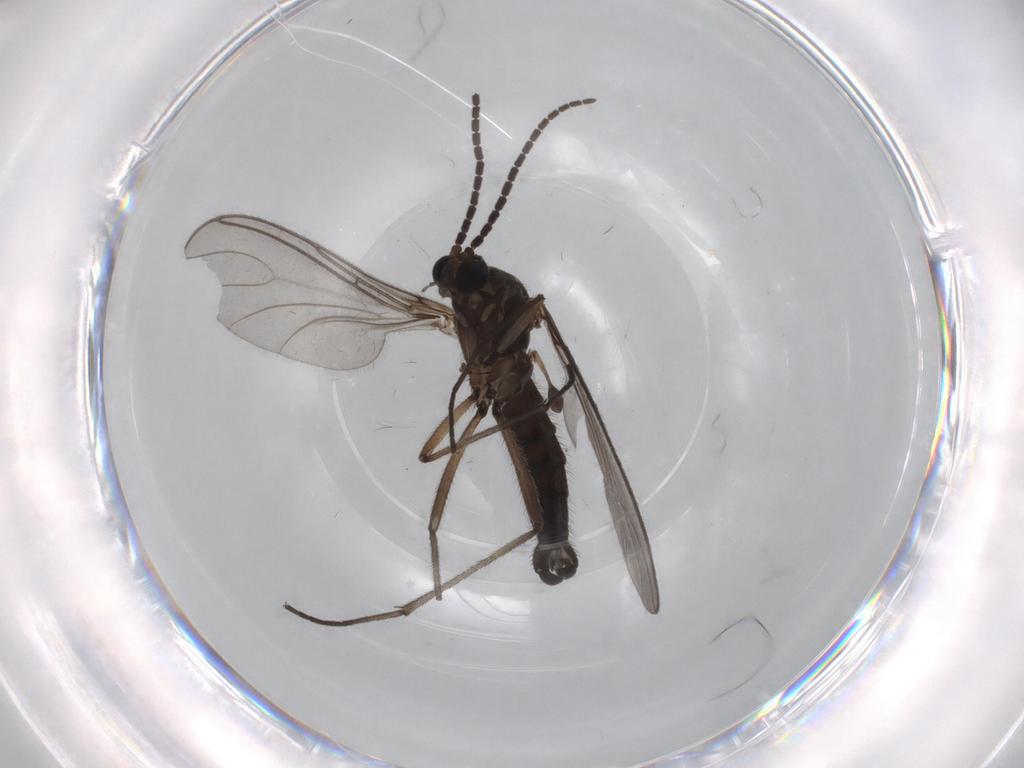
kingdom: Animalia
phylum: Arthropoda
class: Insecta
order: Diptera
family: Sciaridae
